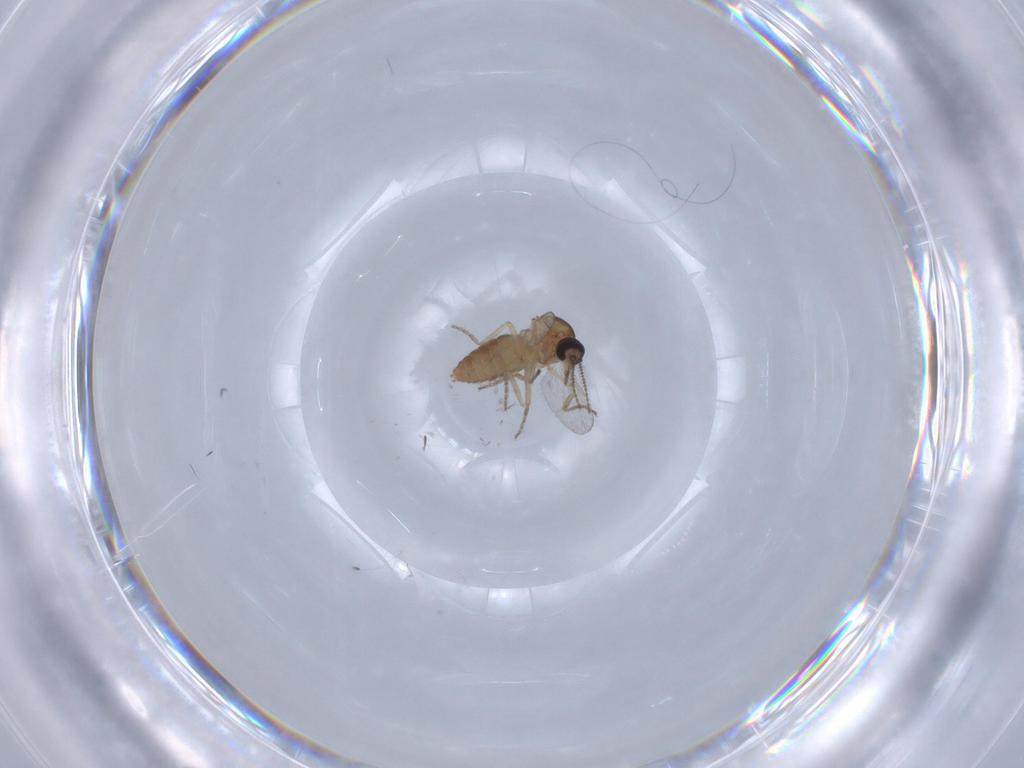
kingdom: Animalia
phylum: Arthropoda
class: Insecta
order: Diptera
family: Ceratopogonidae
